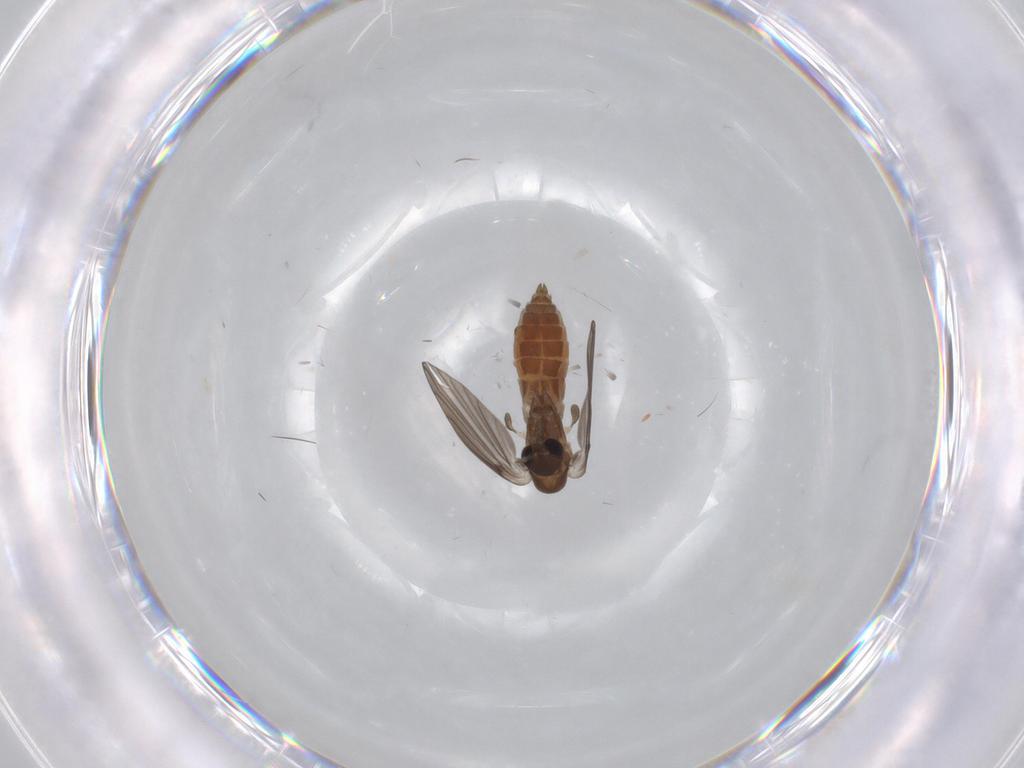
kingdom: Animalia
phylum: Arthropoda
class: Insecta
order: Diptera
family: Psychodidae
